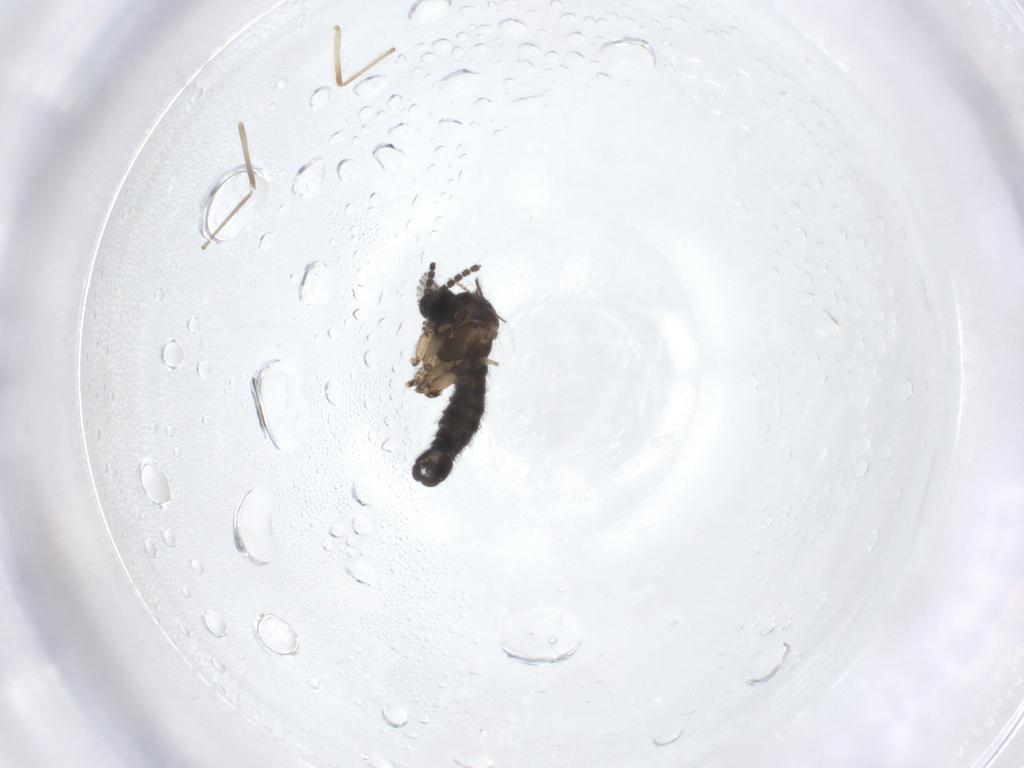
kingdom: Animalia
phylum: Arthropoda
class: Insecta
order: Diptera
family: Sciaridae
